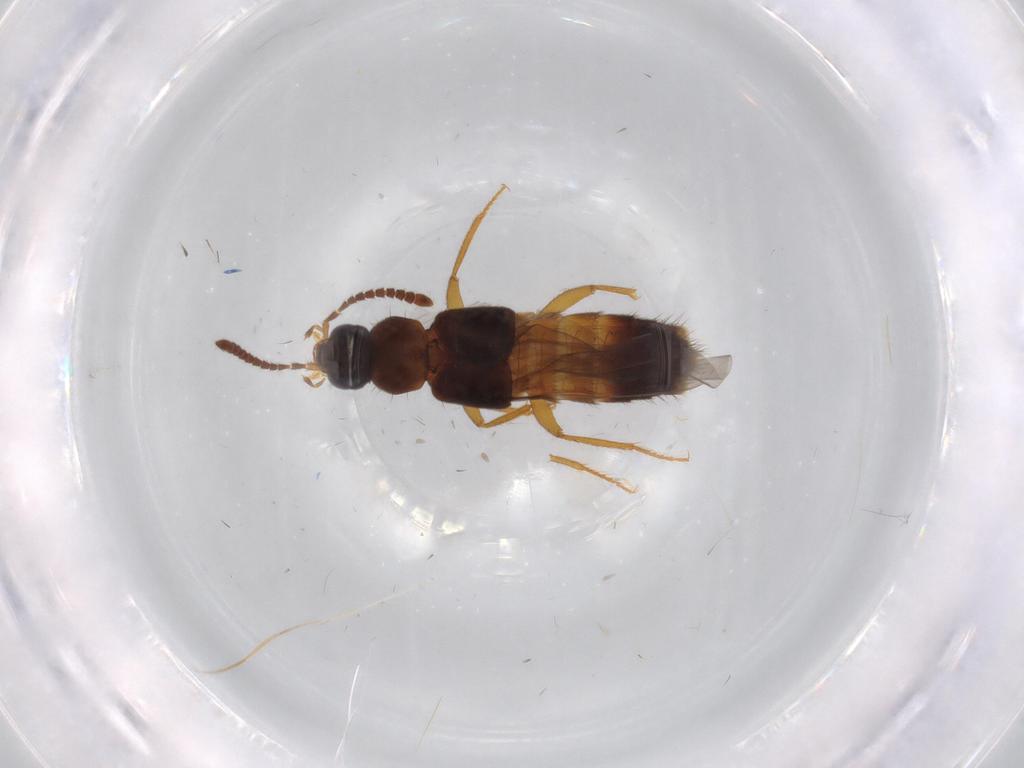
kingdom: Animalia
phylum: Arthropoda
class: Insecta
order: Coleoptera
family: Staphylinidae
